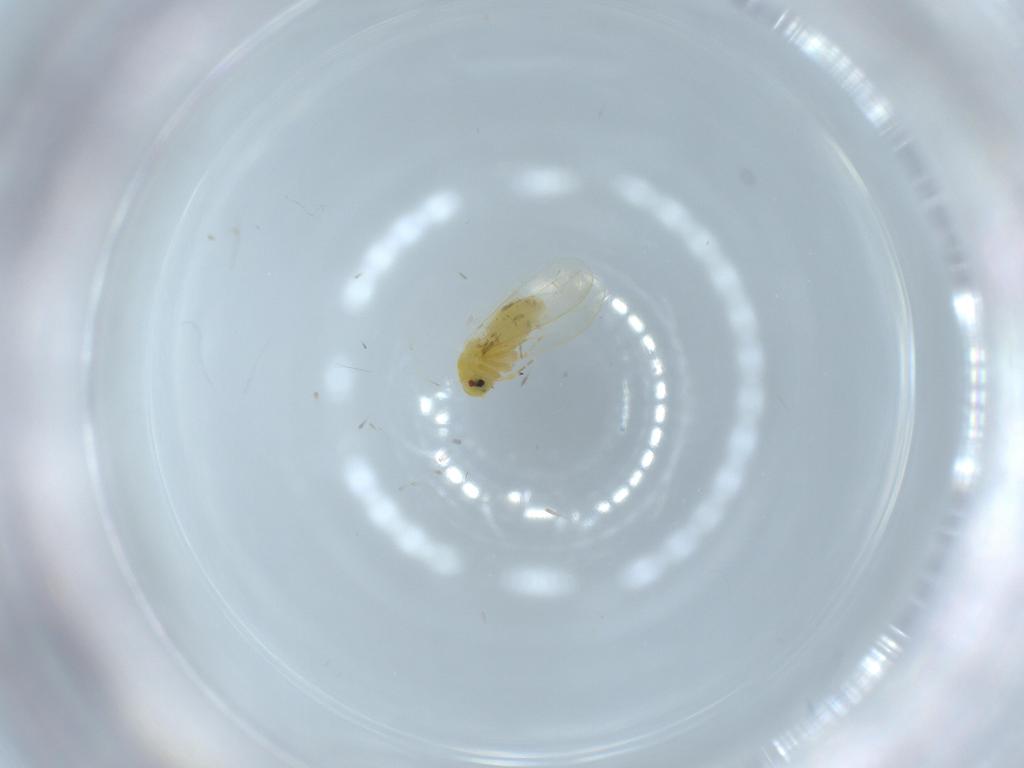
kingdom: Animalia
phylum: Arthropoda
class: Insecta
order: Hemiptera
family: Aleyrodidae
